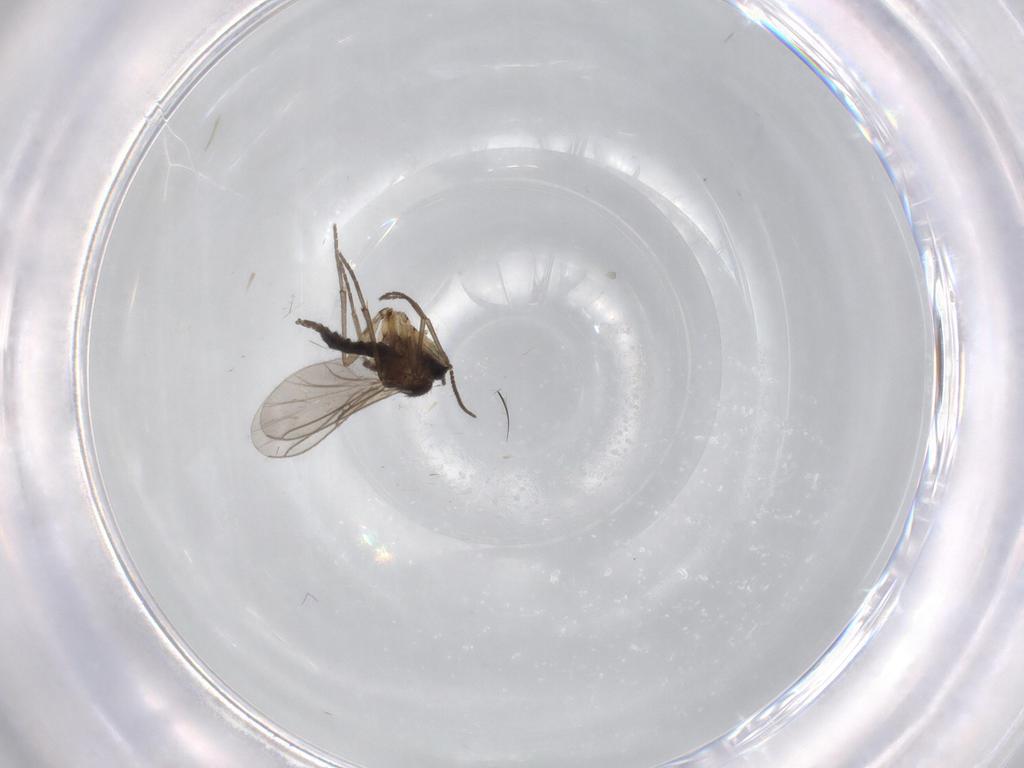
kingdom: Animalia
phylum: Arthropoda
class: Insecta
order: Diptera
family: Sciaridae
